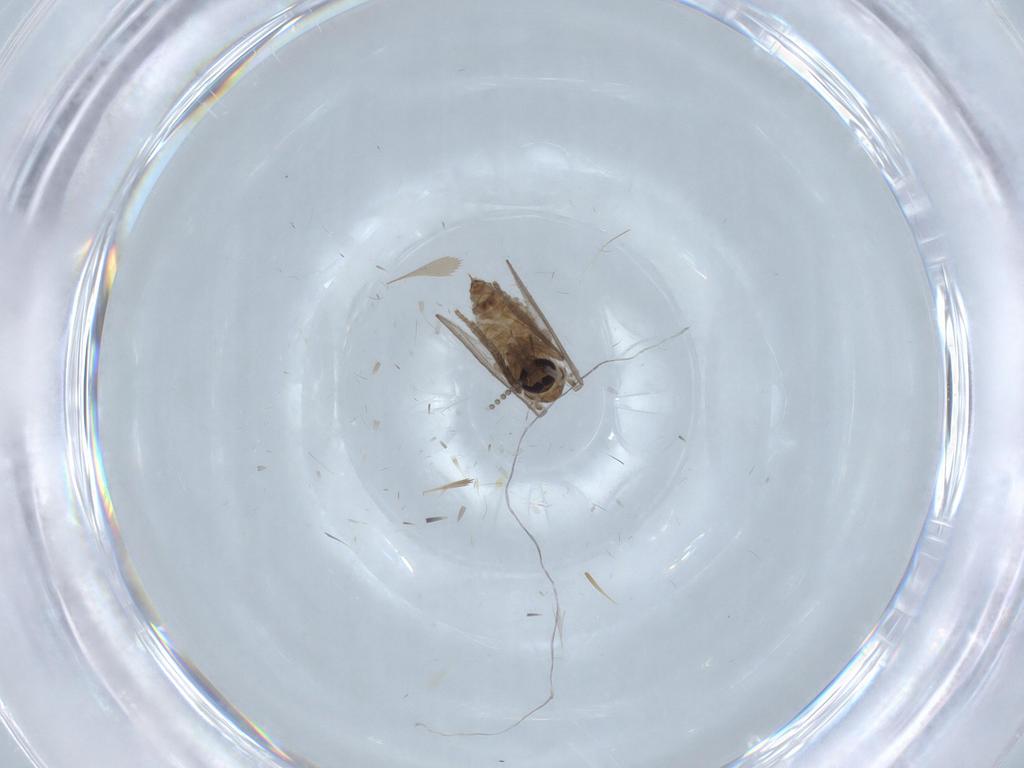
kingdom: Animalia
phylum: Arthropoda
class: Insecta
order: Diptera
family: Psychodidae
